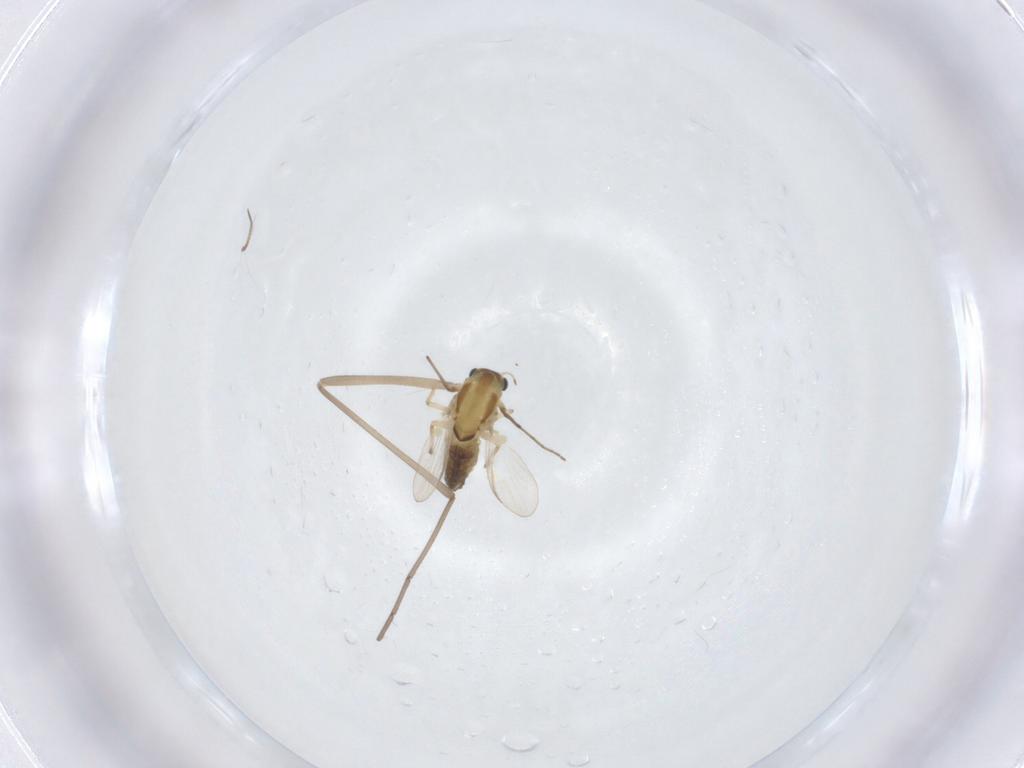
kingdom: Animalia
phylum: Arthropoda
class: Insecta
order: Diptera
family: Cecidomyiidae
